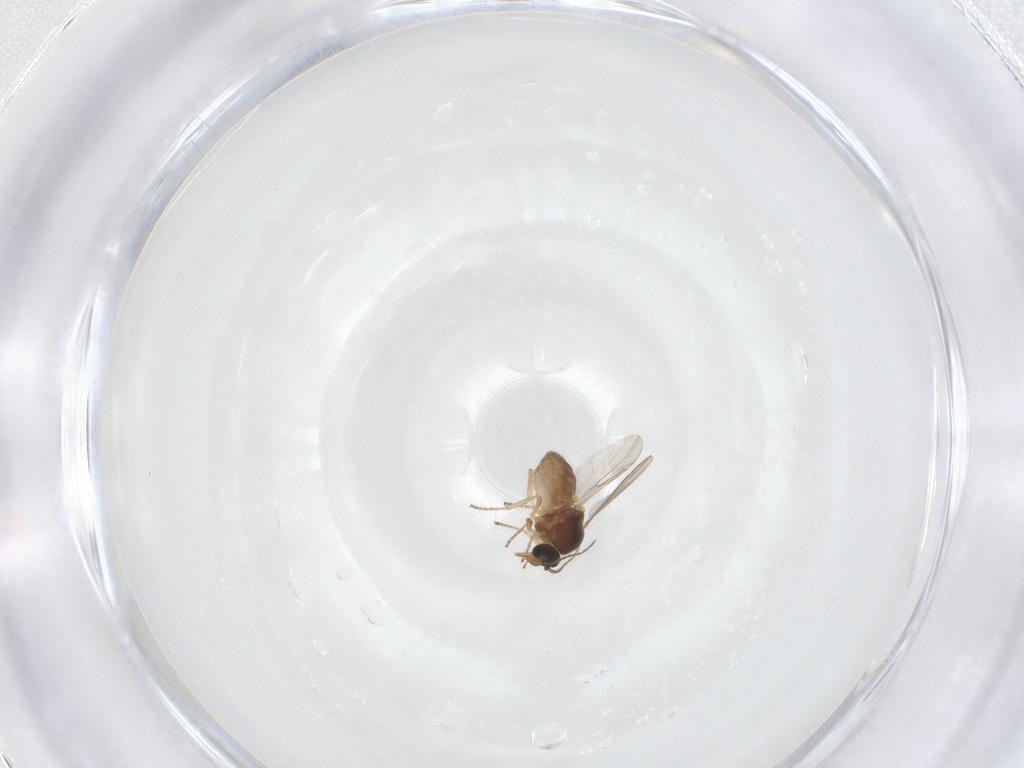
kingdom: Animalia
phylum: Arthropoda
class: Insecta
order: Diptera
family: Ceratopogonidae
